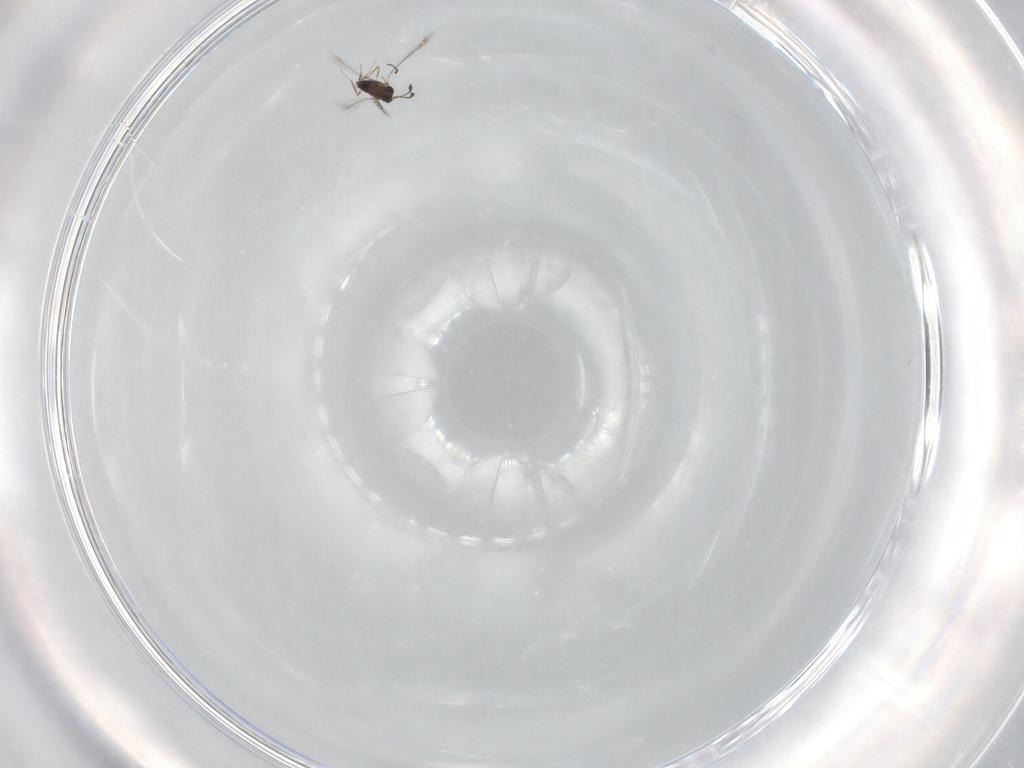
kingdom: Animalia
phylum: Arthropoda
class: Insecta
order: Hymenoptera
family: Mymaridae
